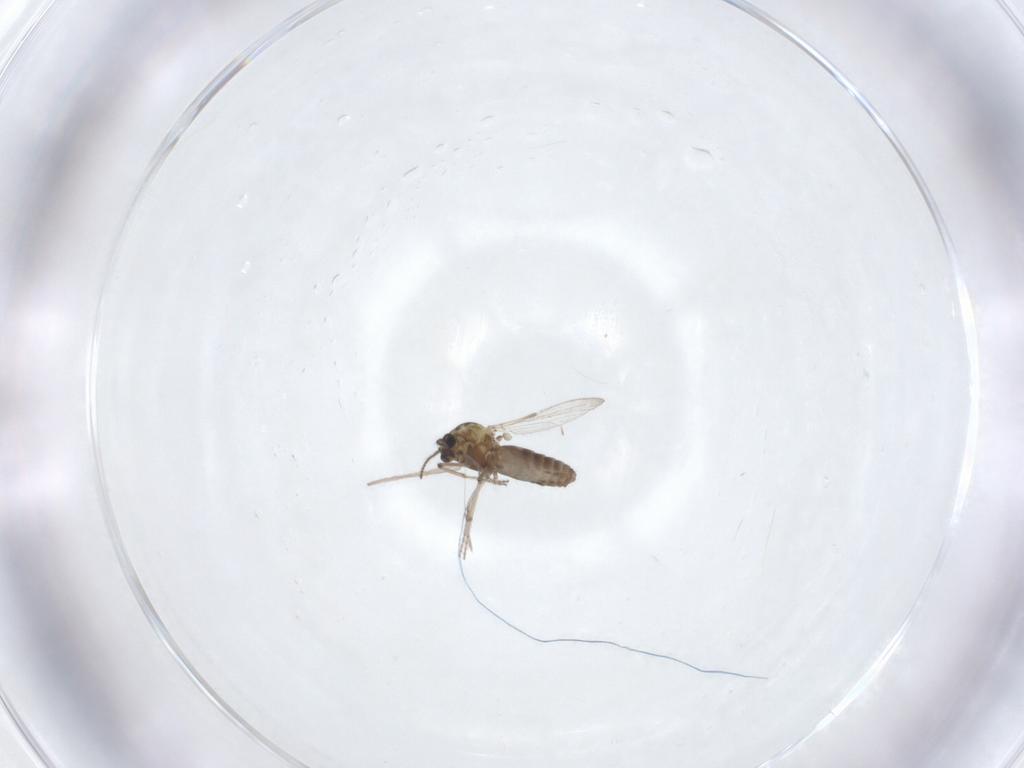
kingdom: Animalia
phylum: Arthropoda
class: Insecta
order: Diptera
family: Ceratopogonidae
